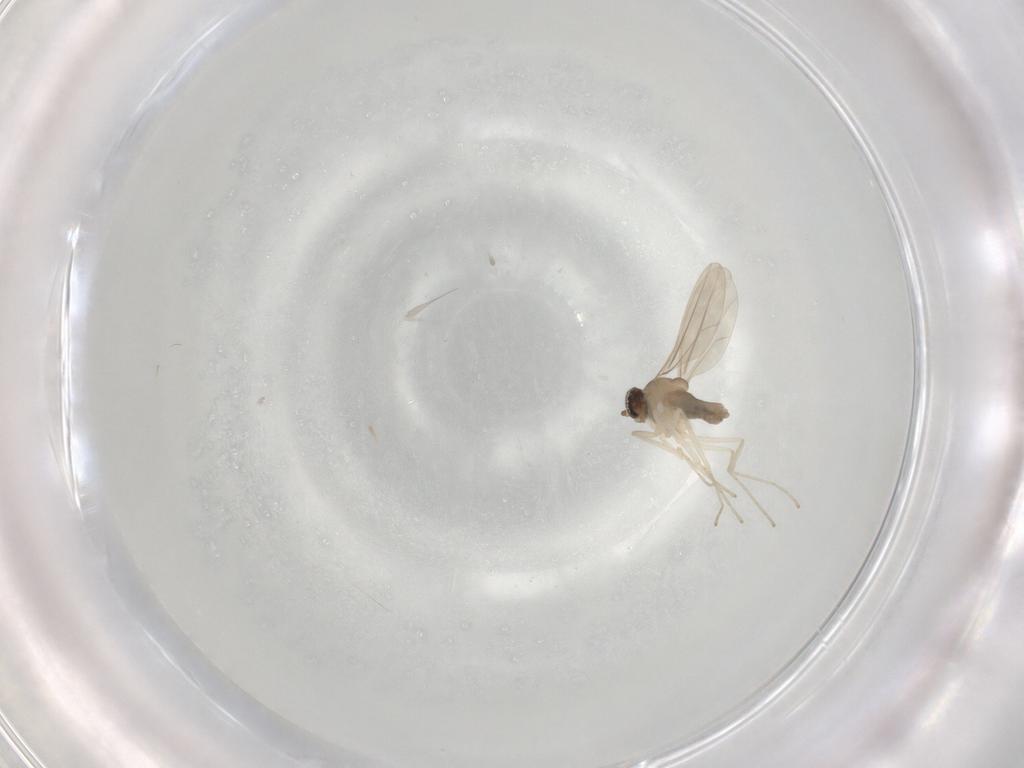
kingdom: Animalia
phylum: Arthropoda
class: Insecta
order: Diptera
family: Cecidomyiidae
